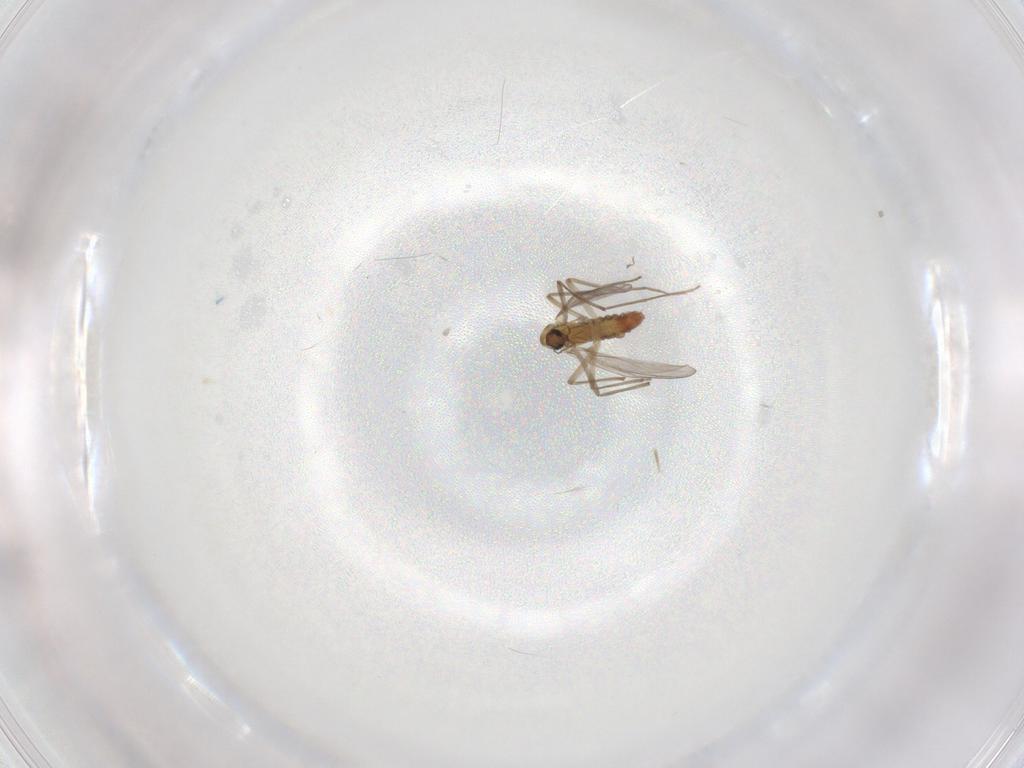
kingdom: Animalia
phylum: Arthropoda
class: Insecta
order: Diptera
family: Chironomidae
